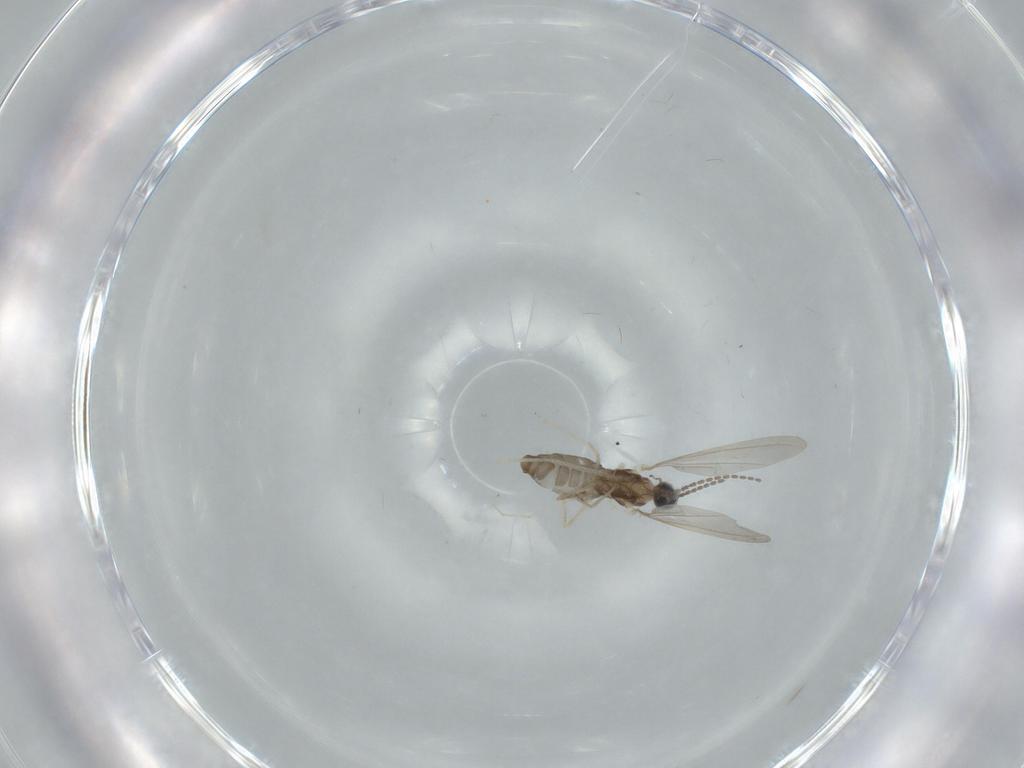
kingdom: Animalia
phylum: Arthropoda
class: Insecta
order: Diptera
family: Cecidomyiidae
